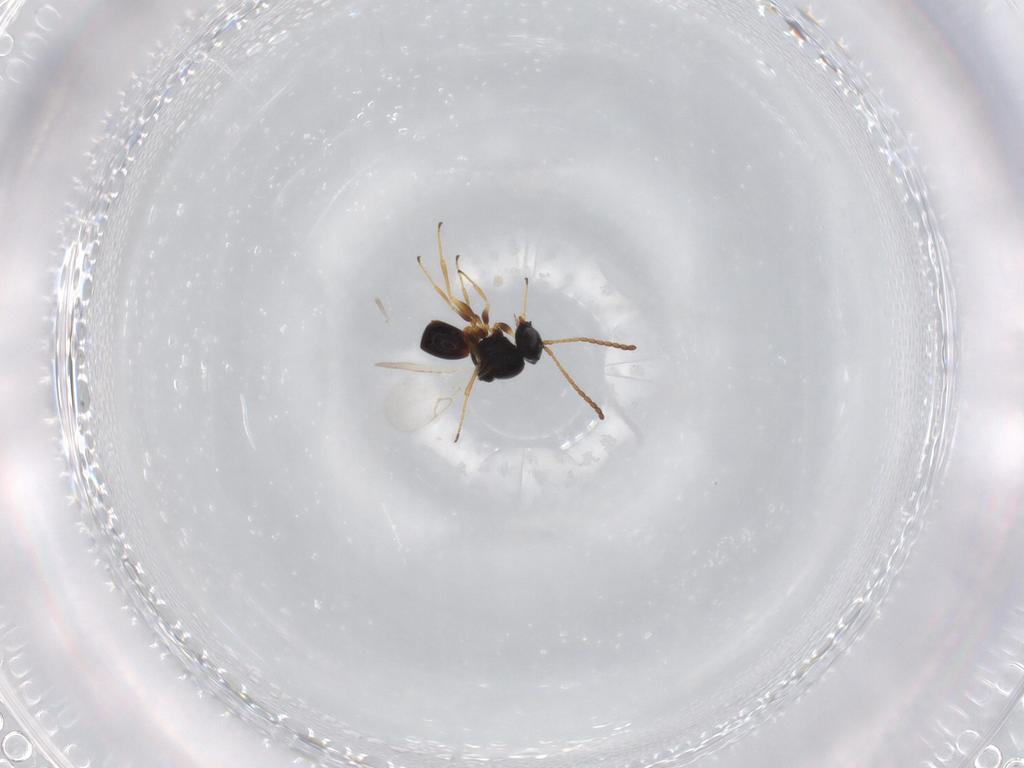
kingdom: Animalia
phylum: Arthropoda
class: Insecta
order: Hymenoptera
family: Figitidae
